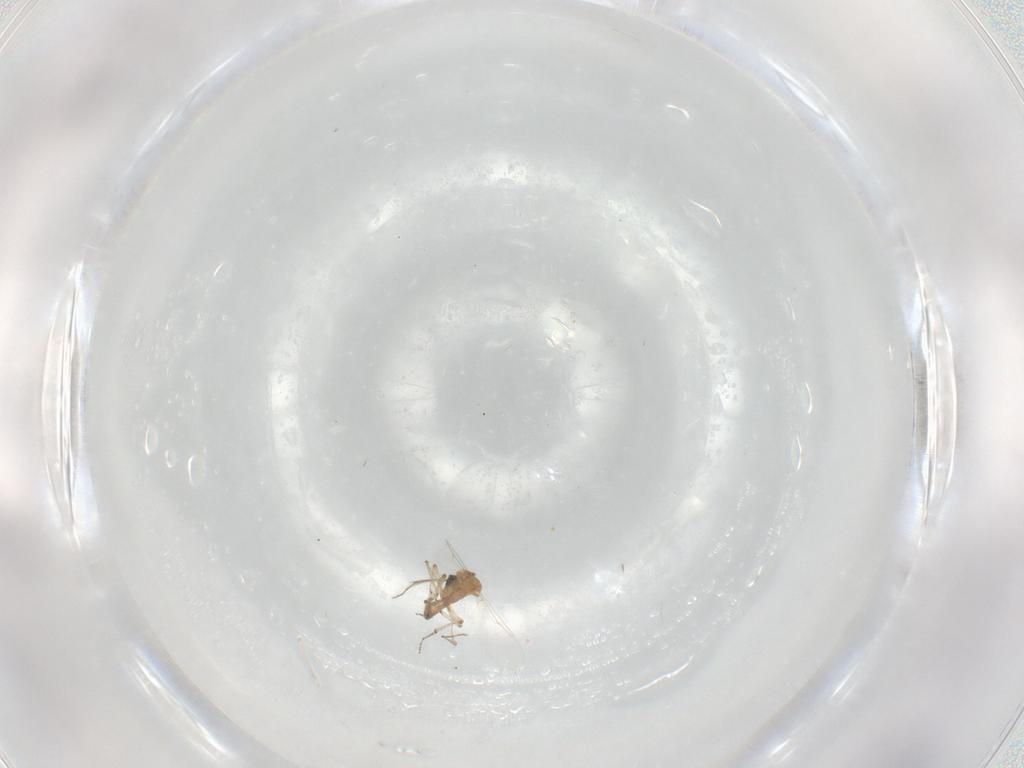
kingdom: Animalia
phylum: Arthropoda
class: Insecta
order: Diptera
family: Ceratopogonidae
